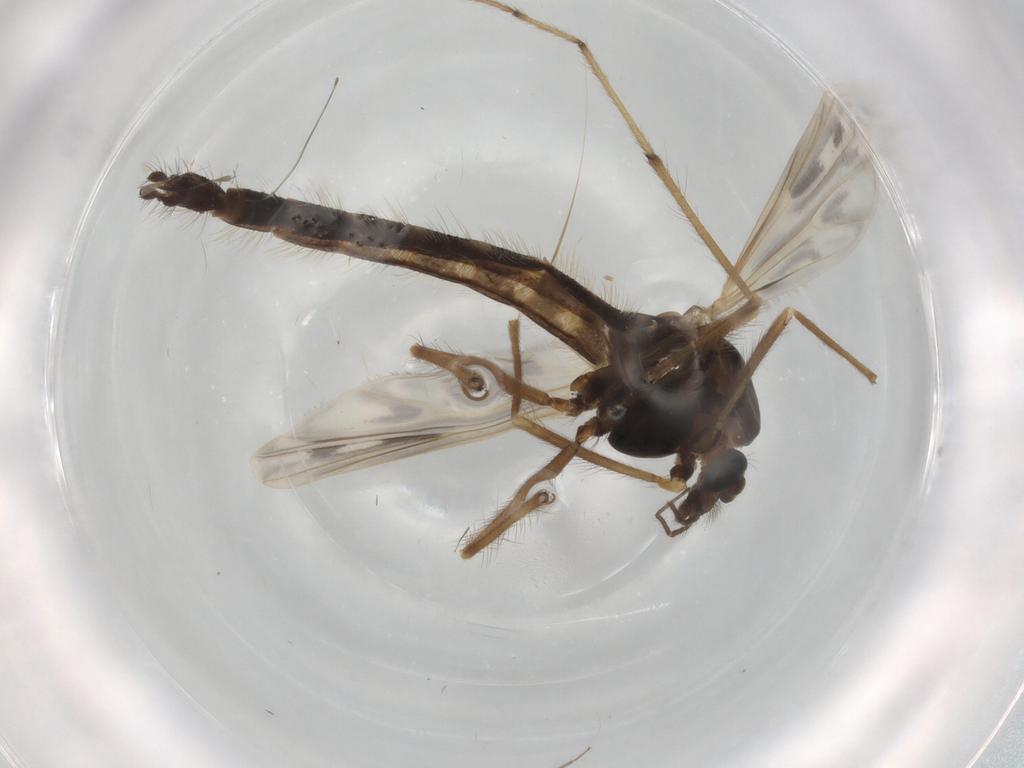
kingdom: Animalia
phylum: Arthropoda
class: Insecta
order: Diptera
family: Chironomidae
